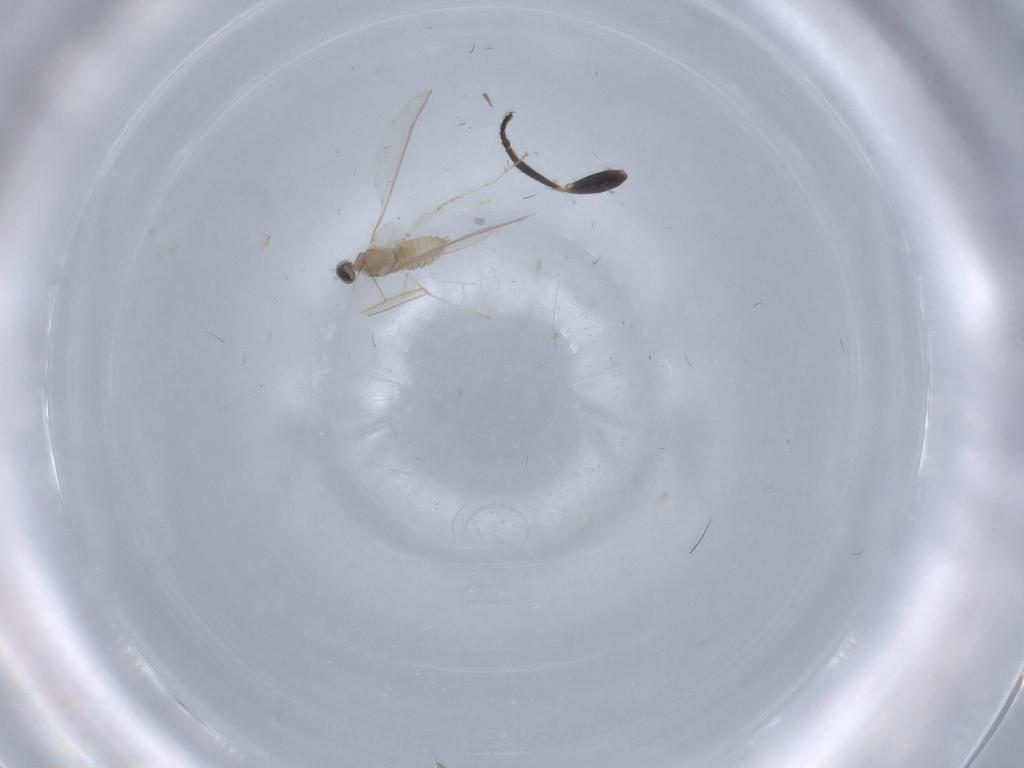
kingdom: Animalia
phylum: Arthropoda
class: Insecta
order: Diptera
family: Cecidomyiidae
